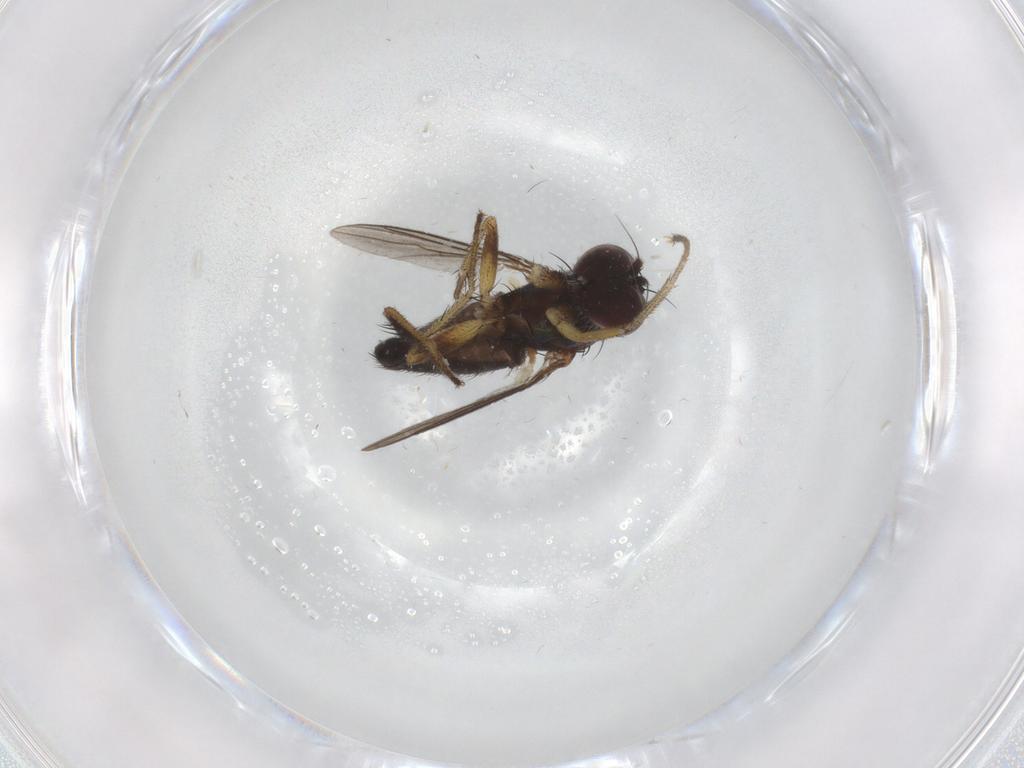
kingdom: Animalia
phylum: Arthropoda
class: Insecta
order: Diptera
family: Dolichopodidae
